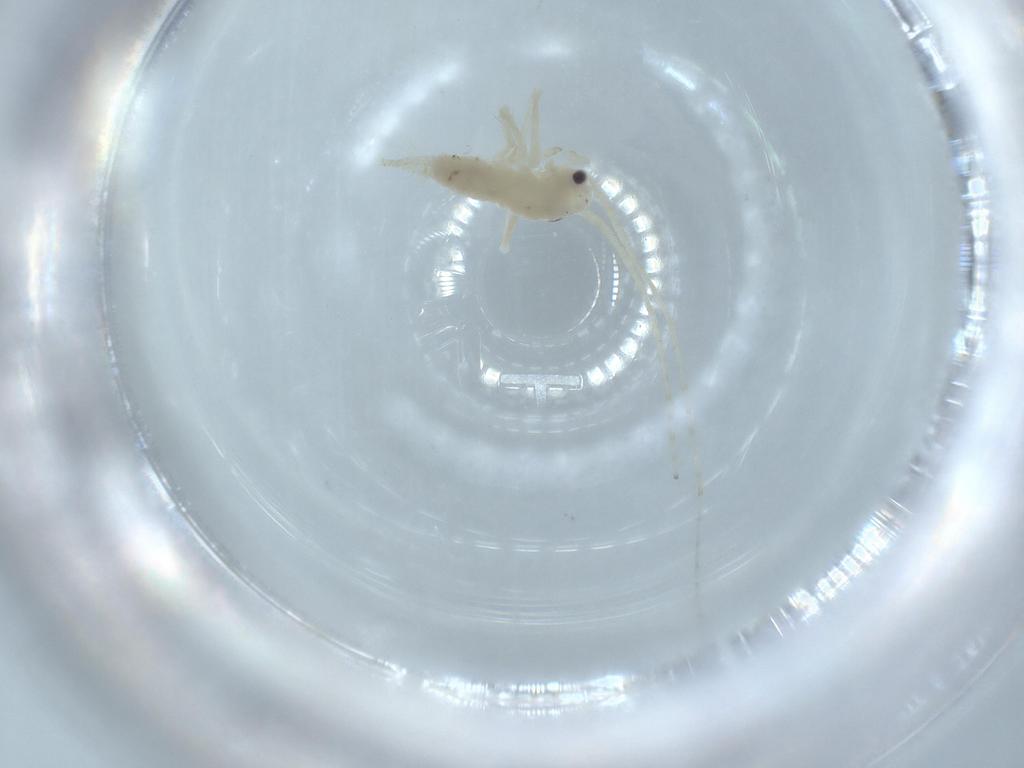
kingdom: Animalia
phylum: Arthropoda
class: Insecta
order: Orthoptera
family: Trigonidiidae
